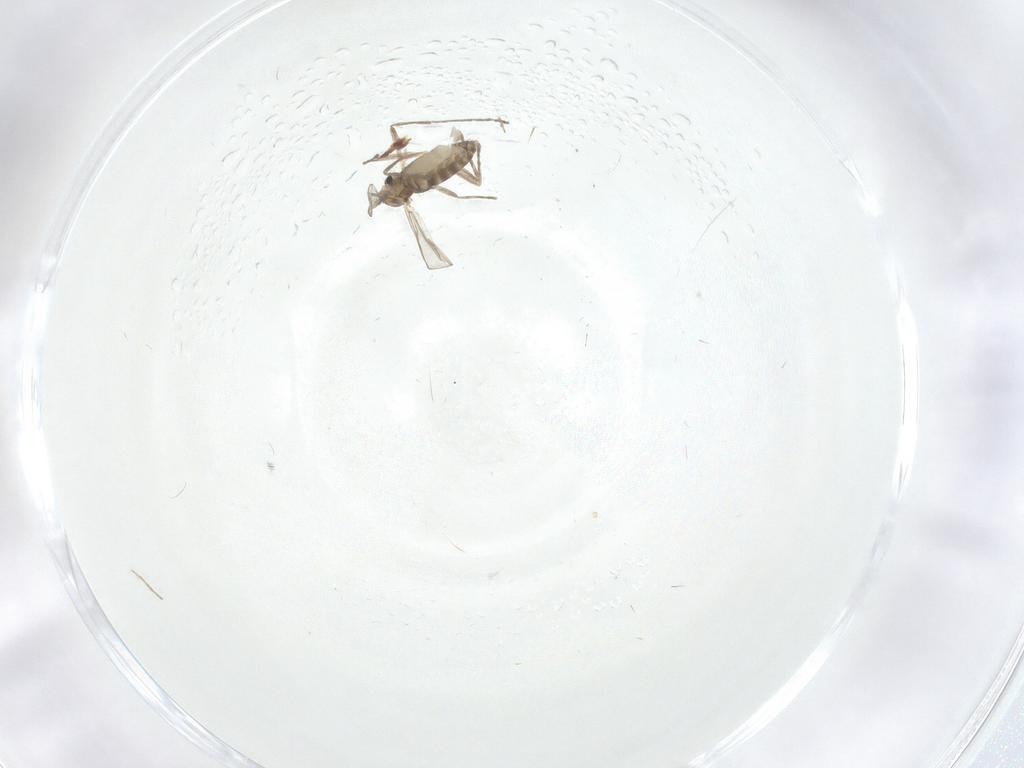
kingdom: Animalia
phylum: Arthropoda
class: Insecta
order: Diptera
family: Chironomidae
